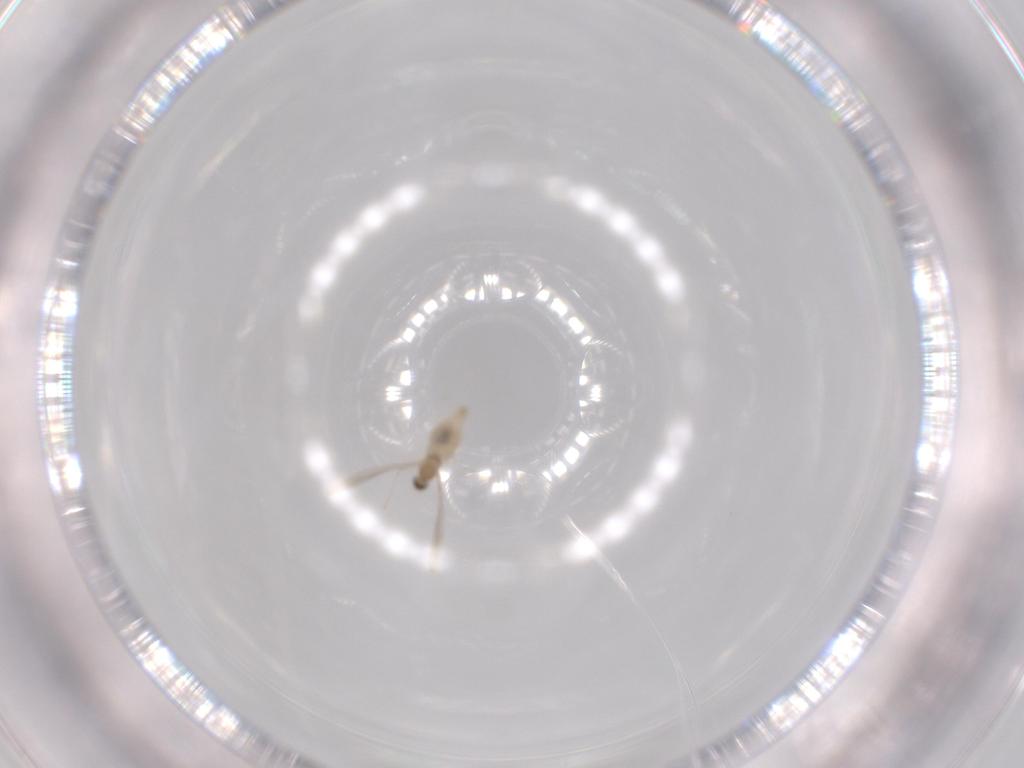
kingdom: Animalia
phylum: Arthropoda
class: Insecta
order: Diptera
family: Cecidomyiidae
